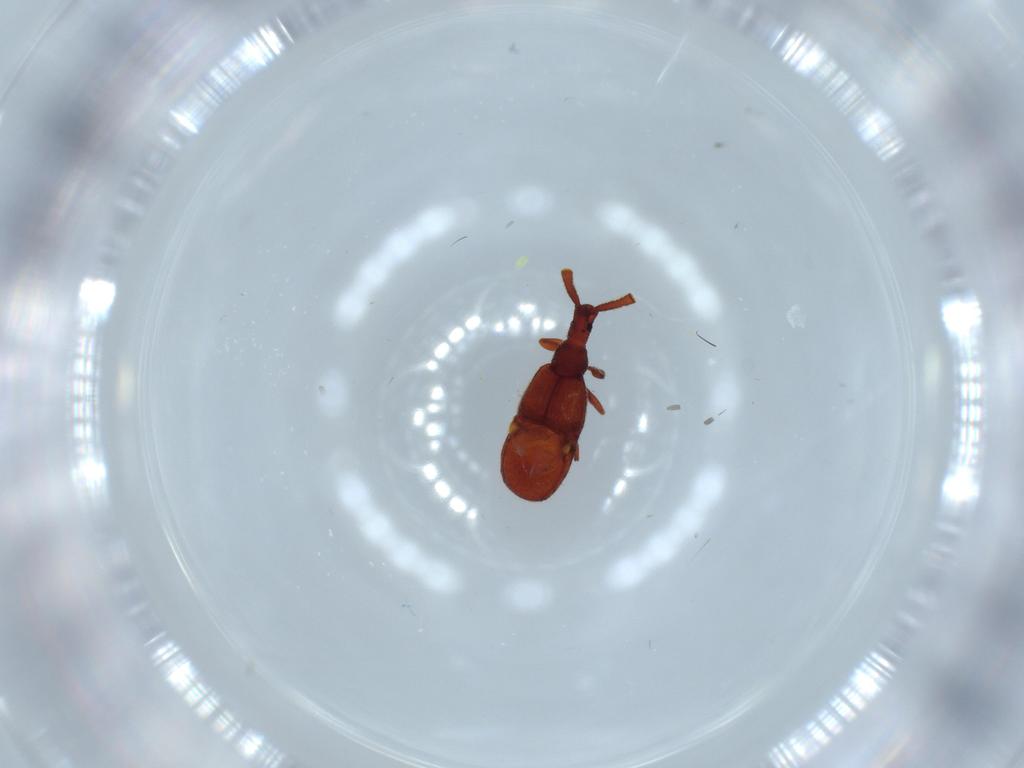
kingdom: Animalia
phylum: Arthropoda
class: Insecta
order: Coleoptera
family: Staphylinidae
